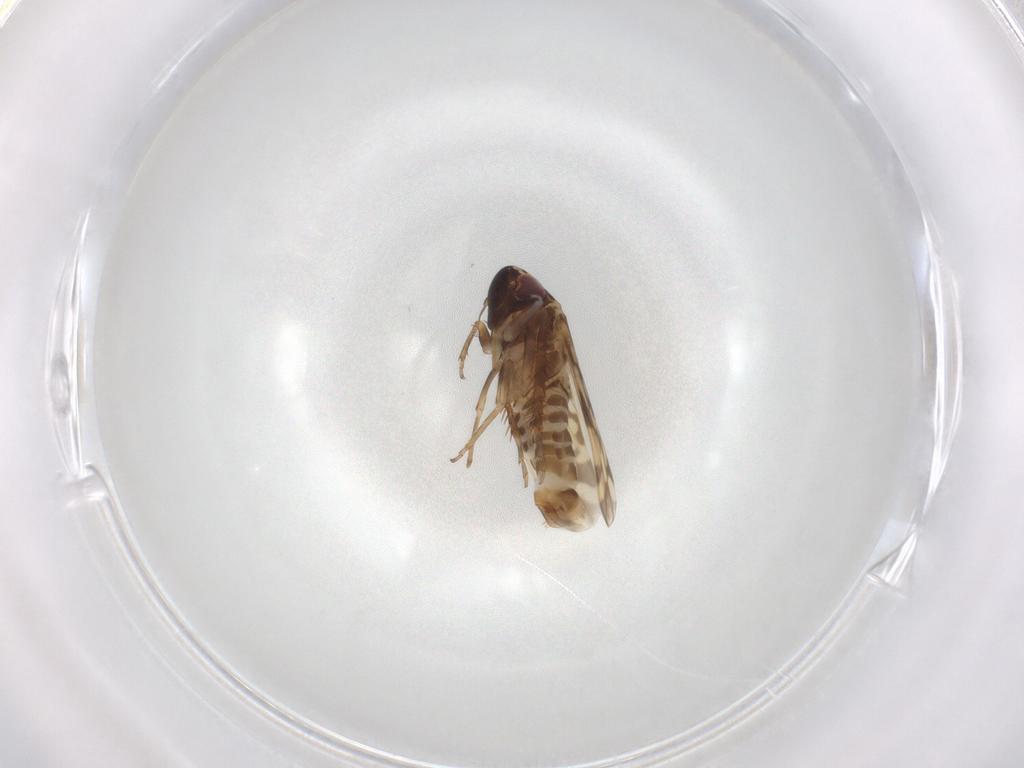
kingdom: Animalia
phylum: Arthropoda
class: Insecta
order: Hemiptera
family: Cicadellidae
